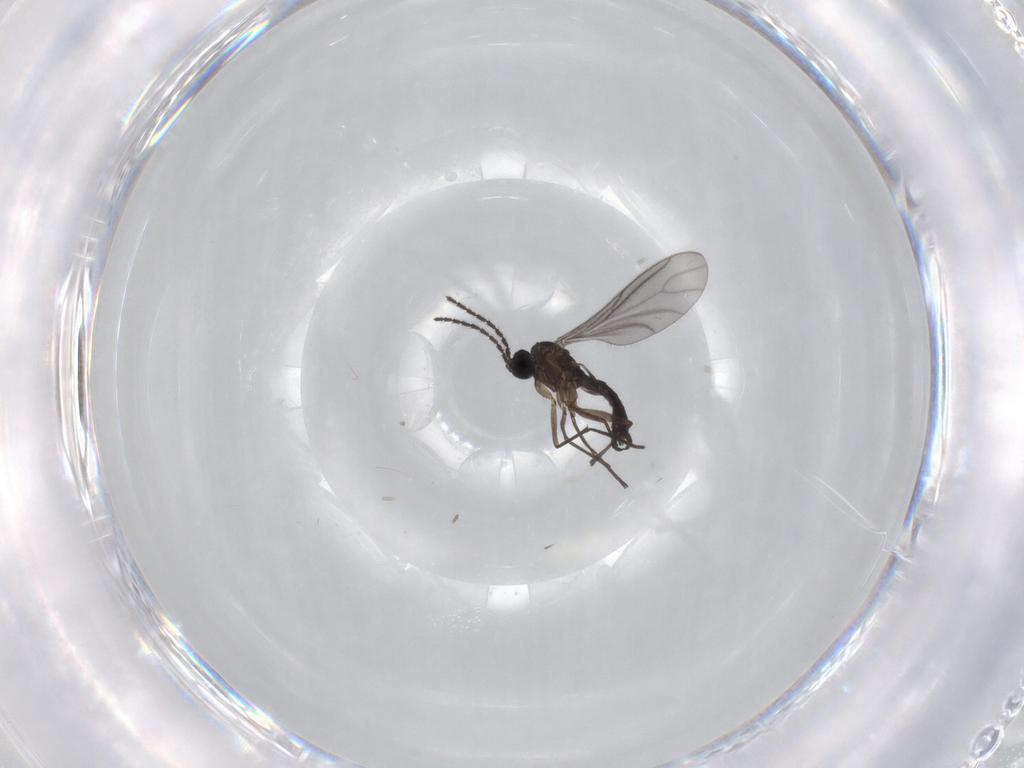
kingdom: Animalia
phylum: Arthropoda
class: Insecta
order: Diptera
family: Sciaridae
